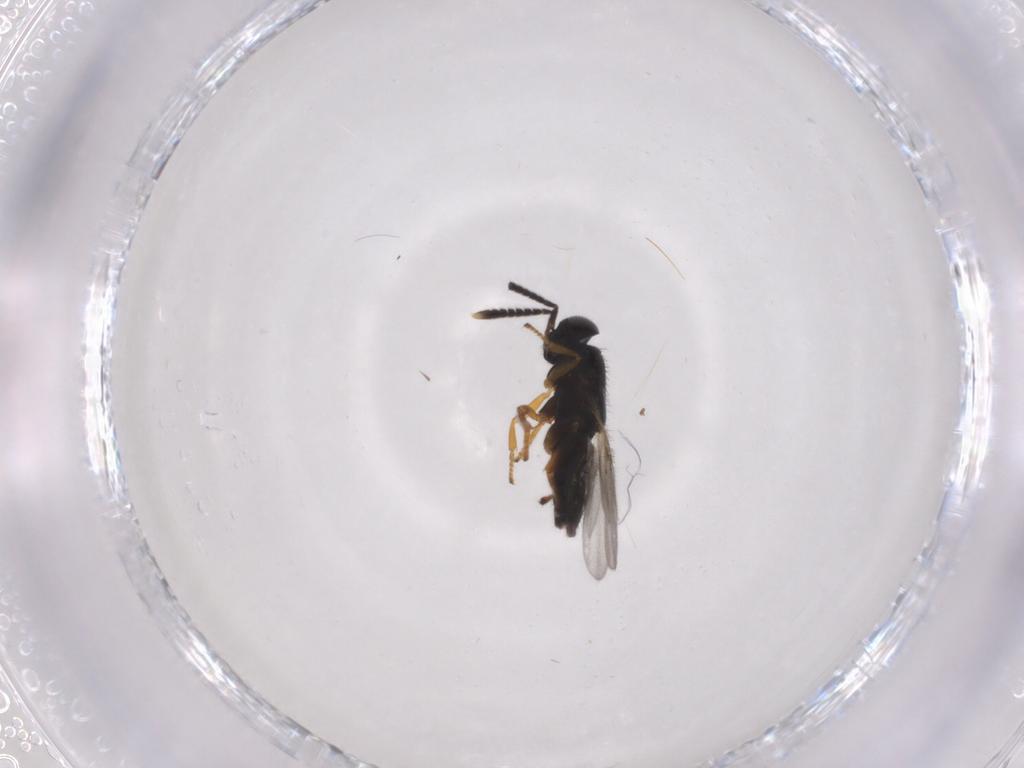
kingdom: Animalia
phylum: Arthropoda
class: Insecta
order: Hymenoptera
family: Encyrtidae
